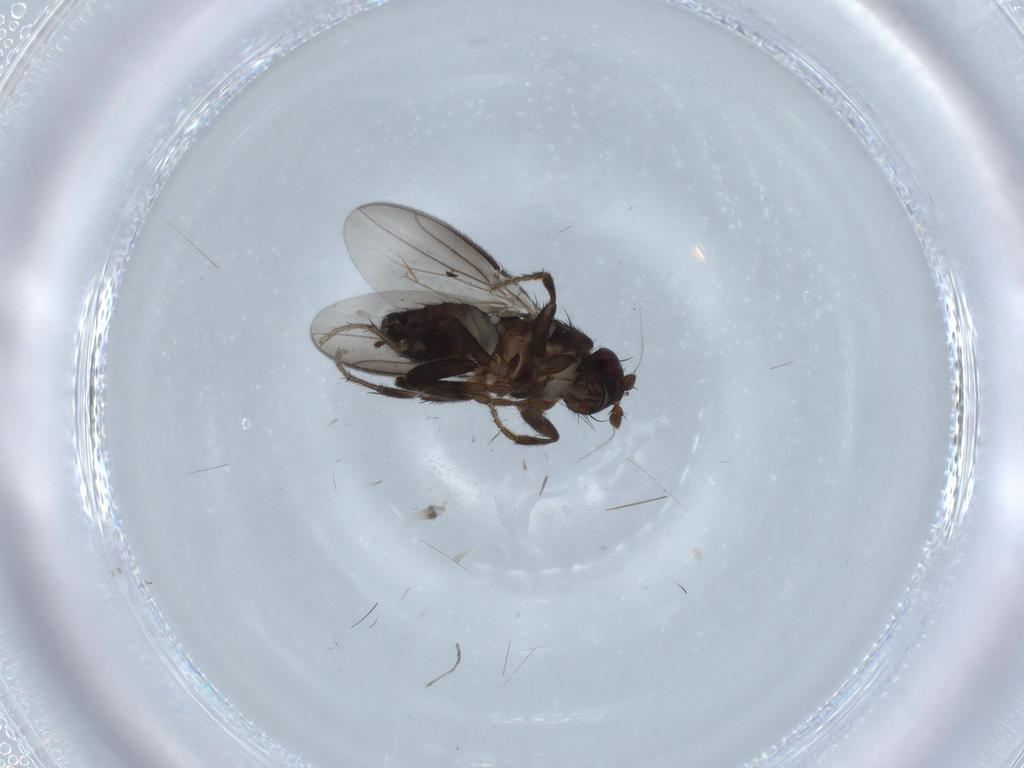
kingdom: Animalia
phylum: Arthropoda
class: Insecta
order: Diptera
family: Sphaeroceridae
